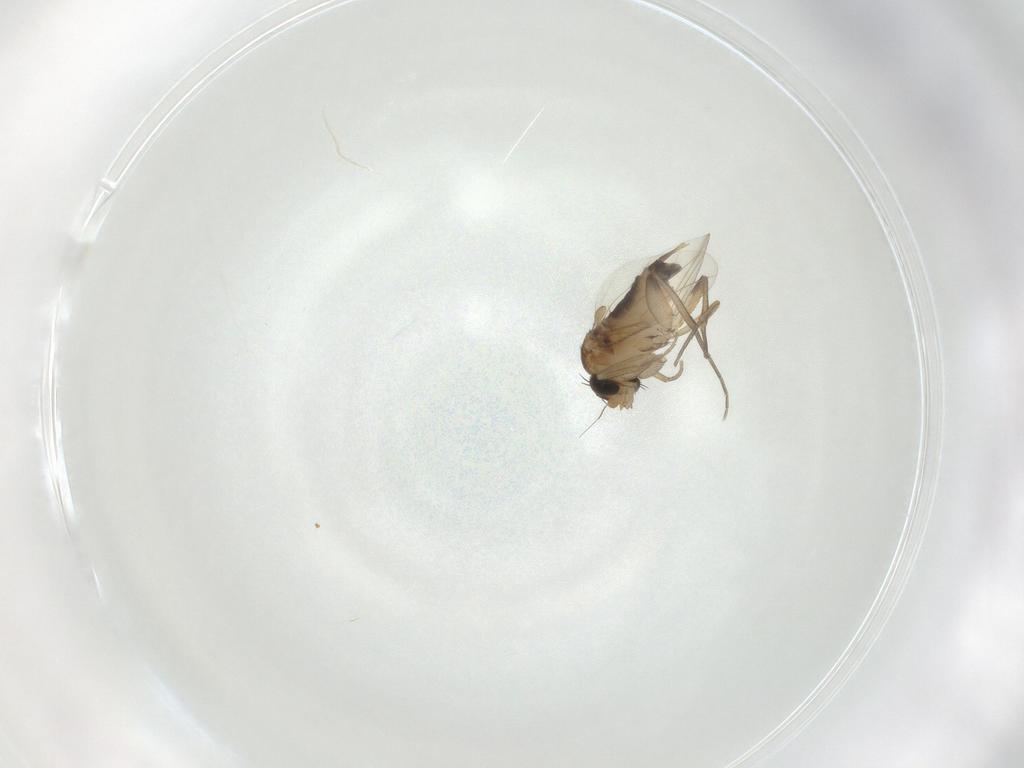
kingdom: Animalia
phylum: Arthropoda
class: Insecta
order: Diptera
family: Phoridae
